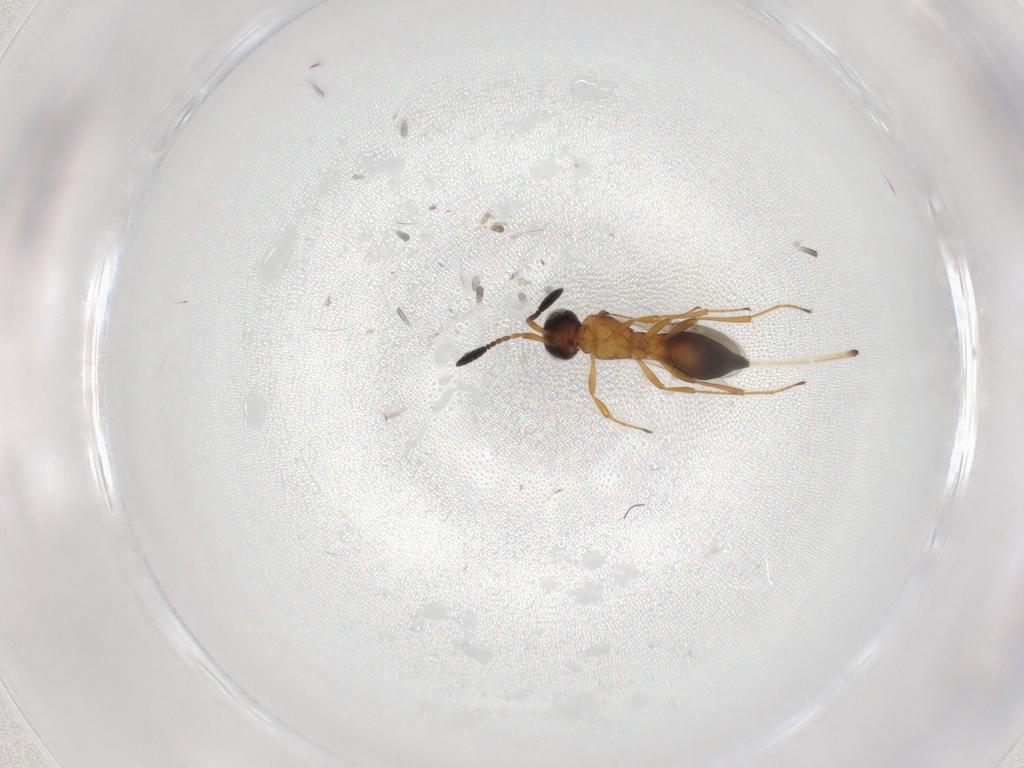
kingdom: Animalia
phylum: Arthropoda
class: Insecta
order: Hymenoptera
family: Scelionidae
